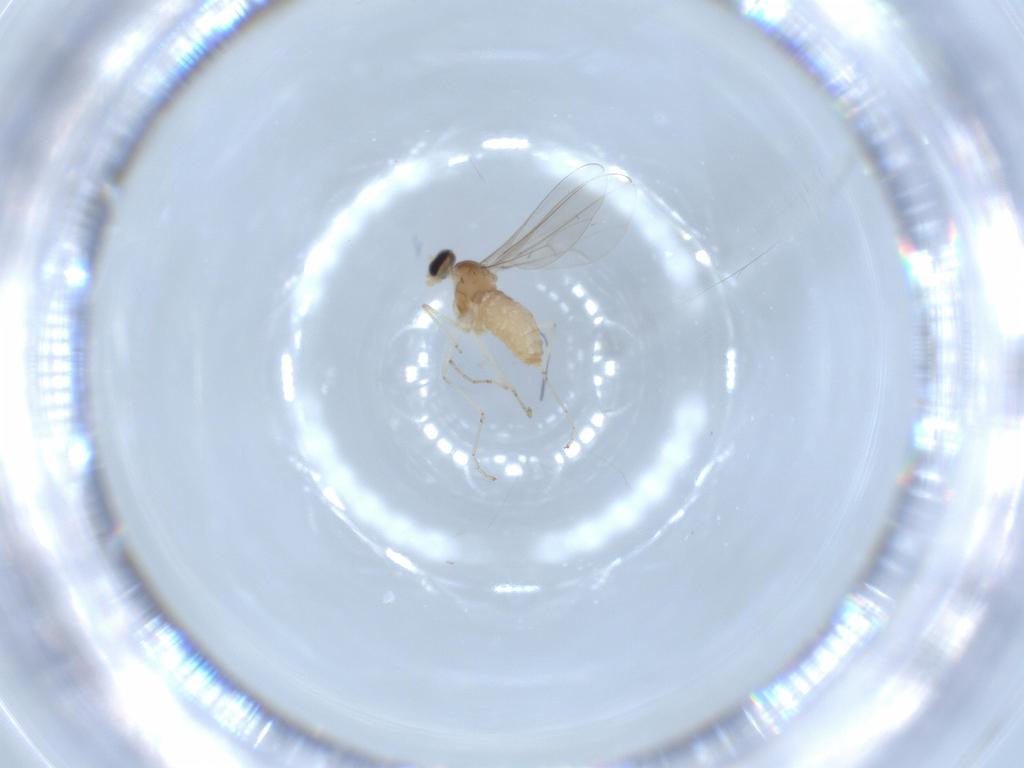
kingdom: Animalia
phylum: Arthropoda
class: Insecta
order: Diptera
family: Cecidomyiidae
